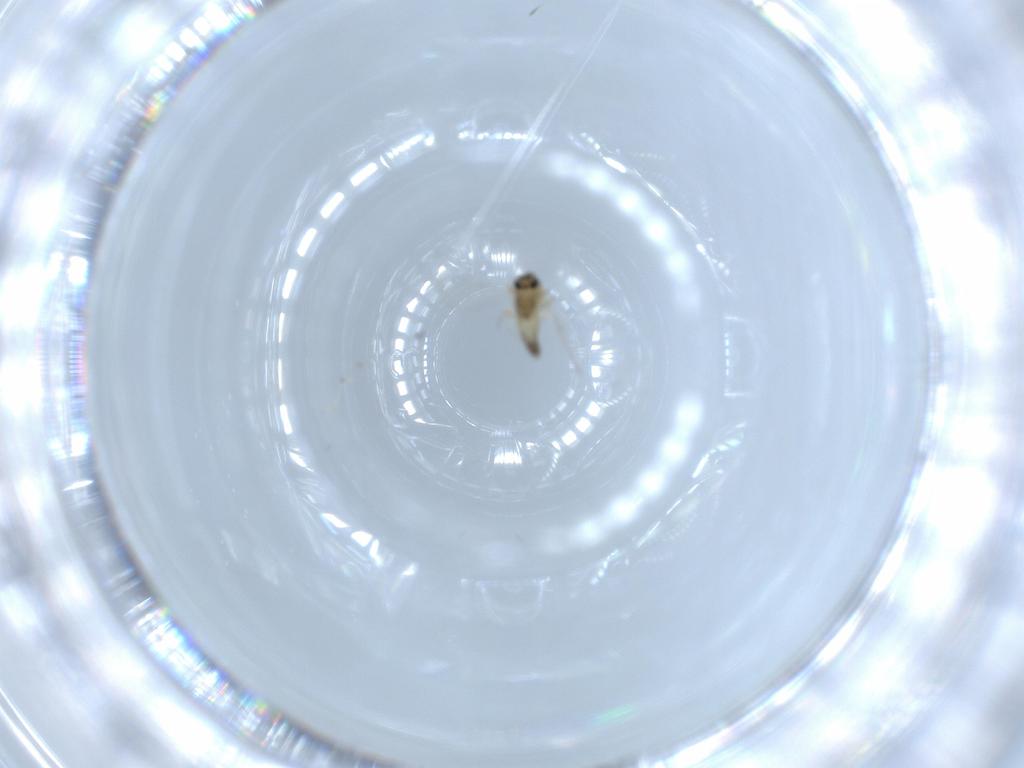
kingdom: Animalia
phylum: Arthropoda
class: Insecta
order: Diptera
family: Chironomidae
